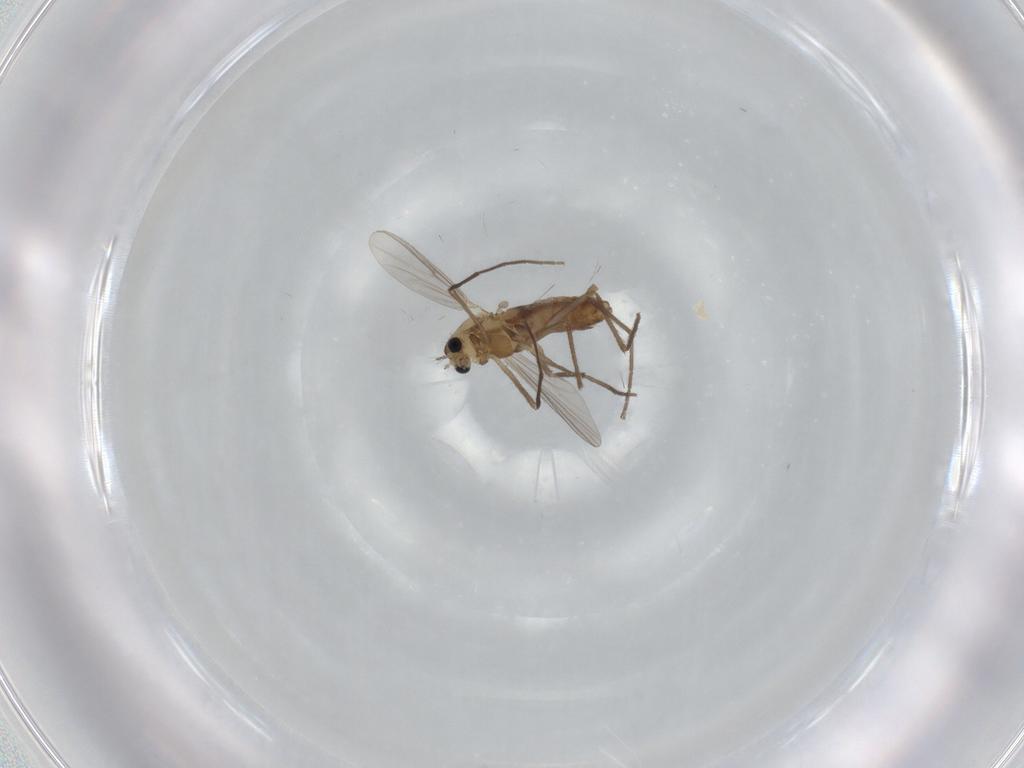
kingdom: Animalia
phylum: Arthropoda
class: Insecta
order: Diptera
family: Chironomidae
